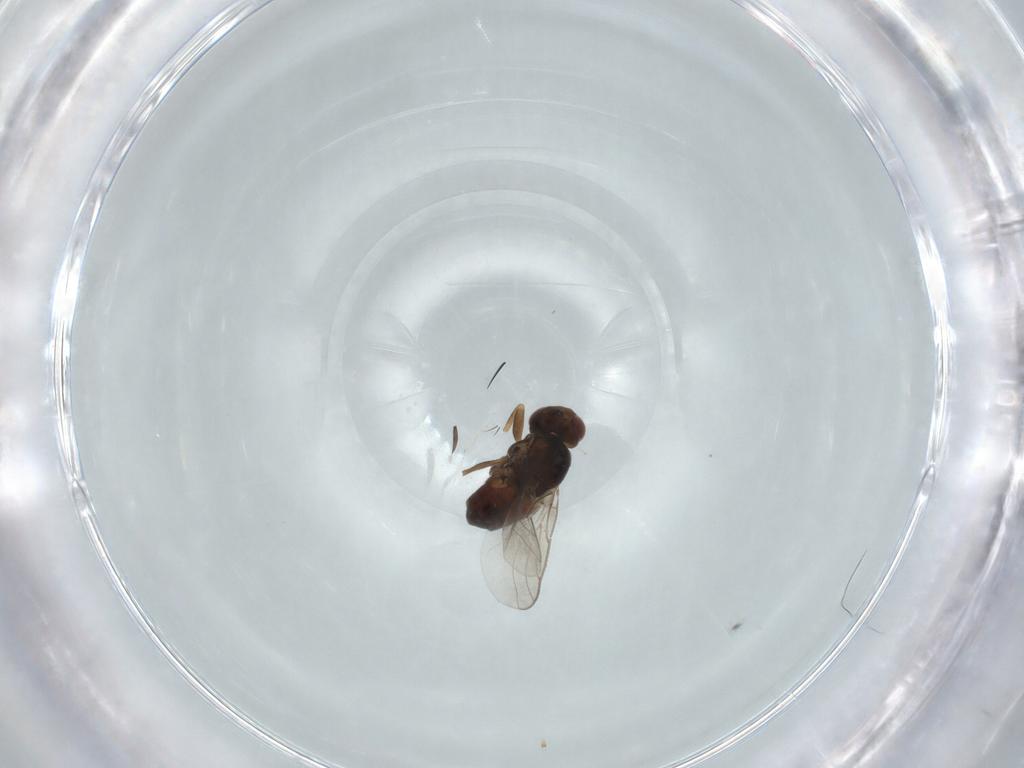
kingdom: Animalia
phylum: Arthropoda
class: Insecta
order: Diptera
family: Chloropidae
